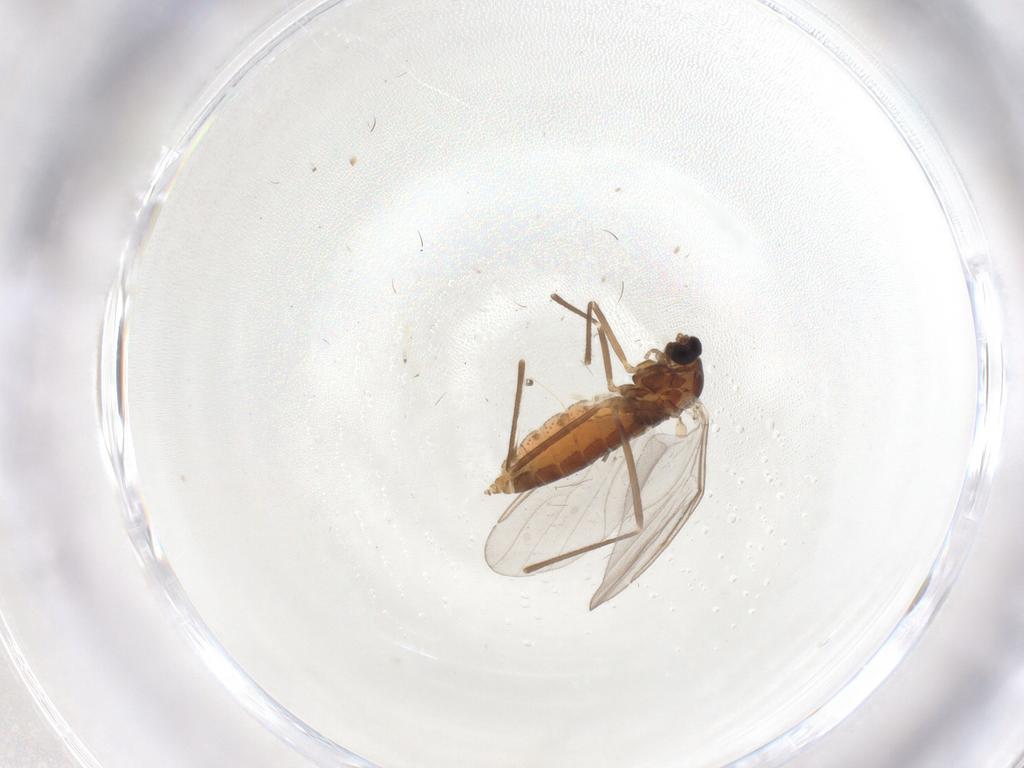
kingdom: Animalia
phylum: Arthropoda
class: Insecta
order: Diptera
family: Cecidomyiidae
